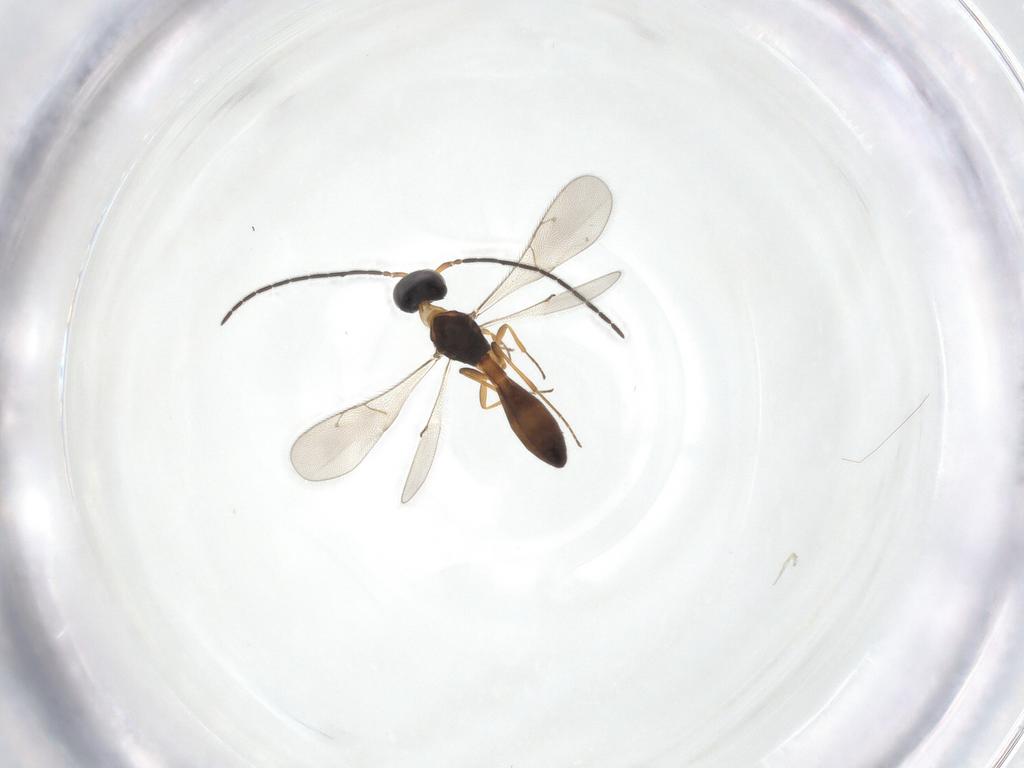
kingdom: Animalia
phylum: Arthropoda
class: Insecta
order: Hymenoptera
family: Scelionidae
